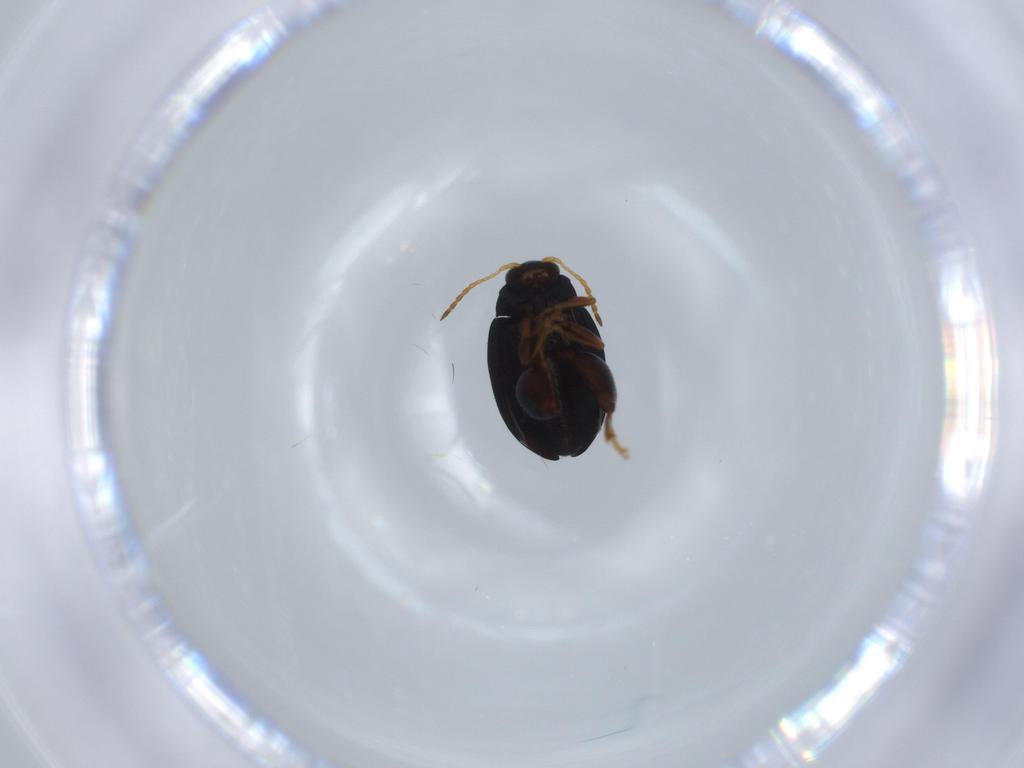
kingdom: Animalia
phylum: Arthropoda
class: Insecta
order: Coleoptera
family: Chrysomelidae
